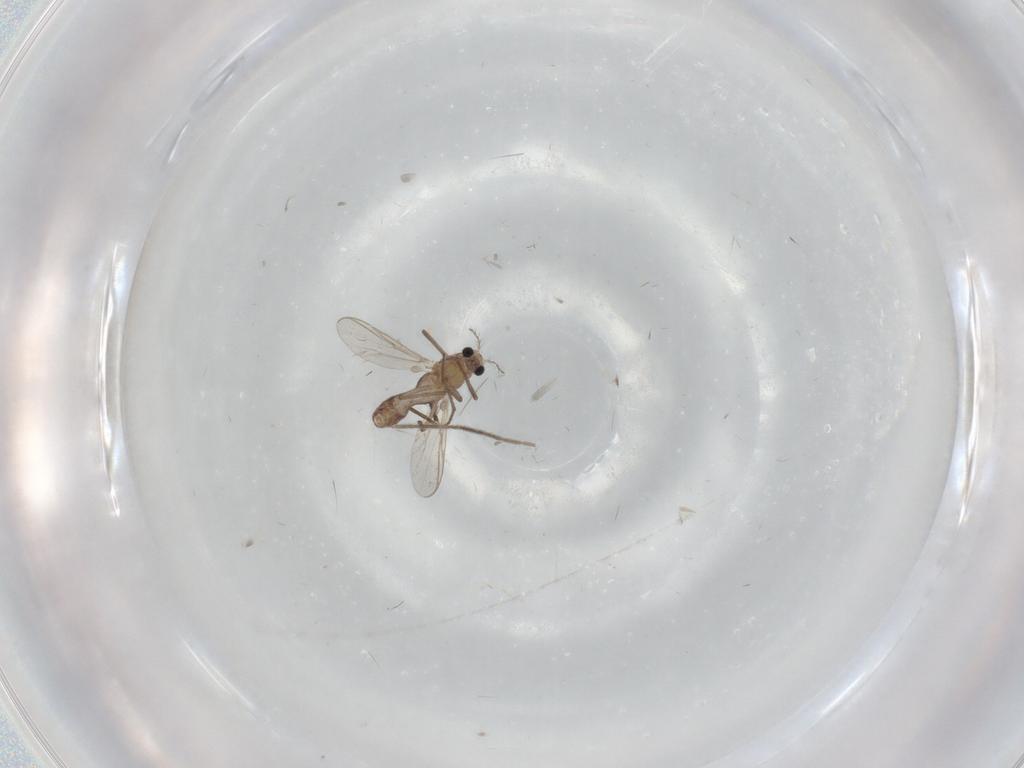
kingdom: Animalia
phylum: Arthropoda
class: Insecta
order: Diptera
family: Chironomidae
